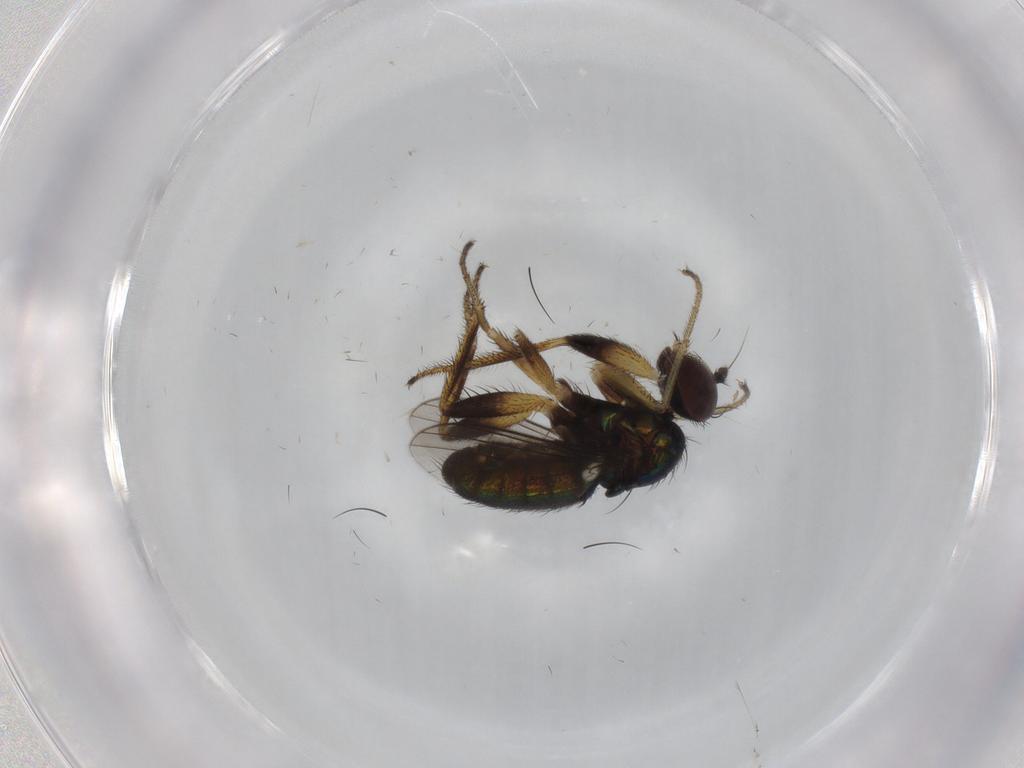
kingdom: Animalia
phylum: Arthropoda
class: Insecta
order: Diptera
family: Dolichopodidae
